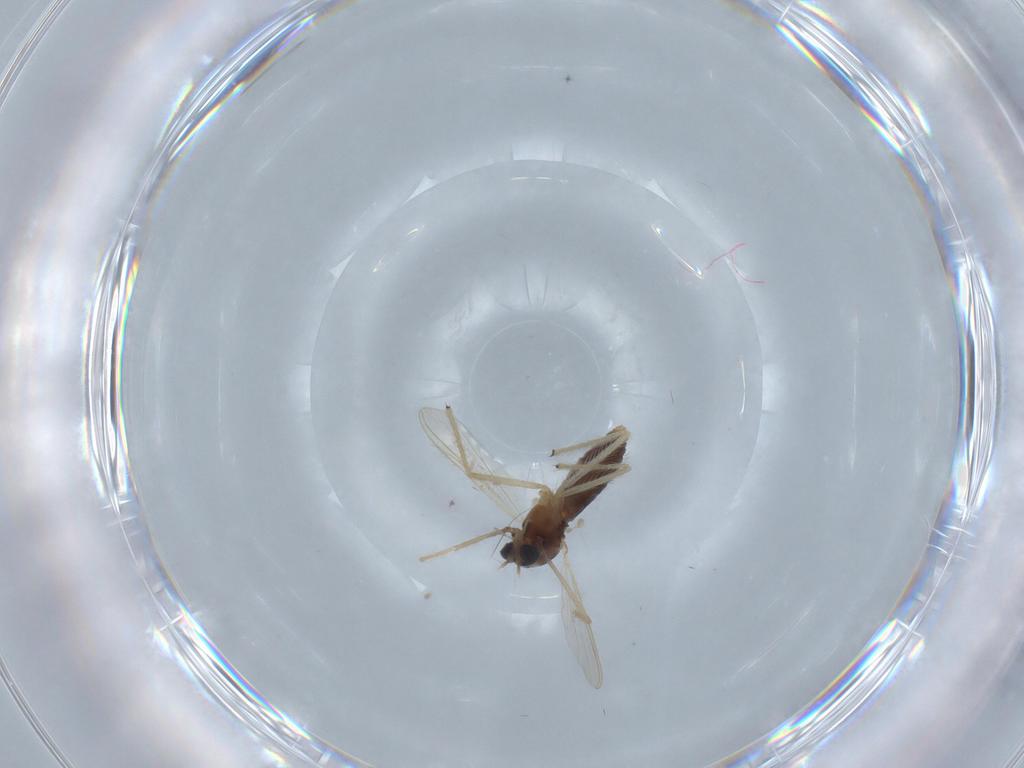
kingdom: Animalia
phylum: Arthropoda
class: Insecta
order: Diptera
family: Chironomidae
